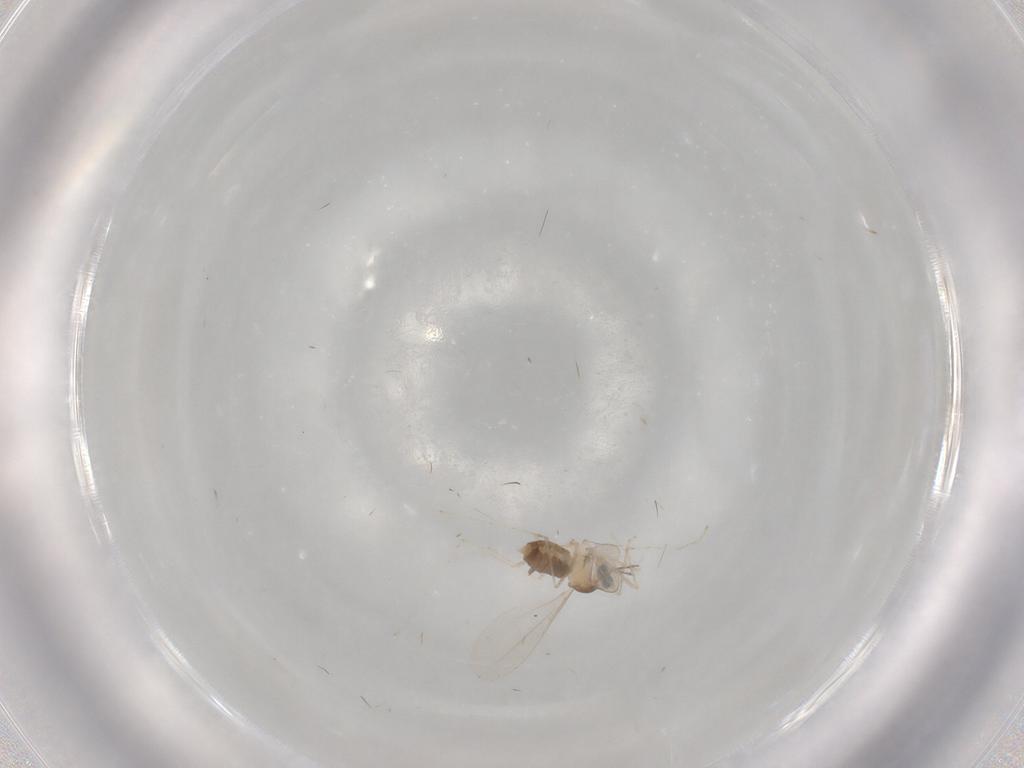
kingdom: Animalia
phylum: Arthropoda
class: Insecta
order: Diptera
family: Cecidomyiidae
